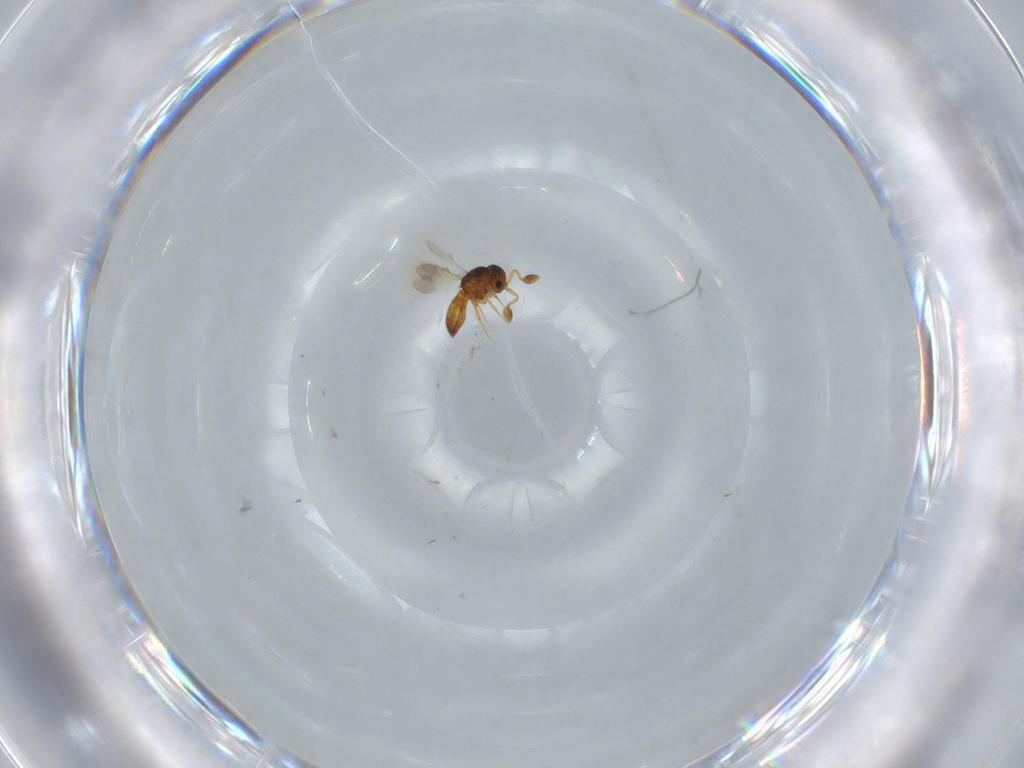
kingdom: Animalia
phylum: Arthropoda
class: Insecta
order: Hymenoptera
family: Scelionidae
